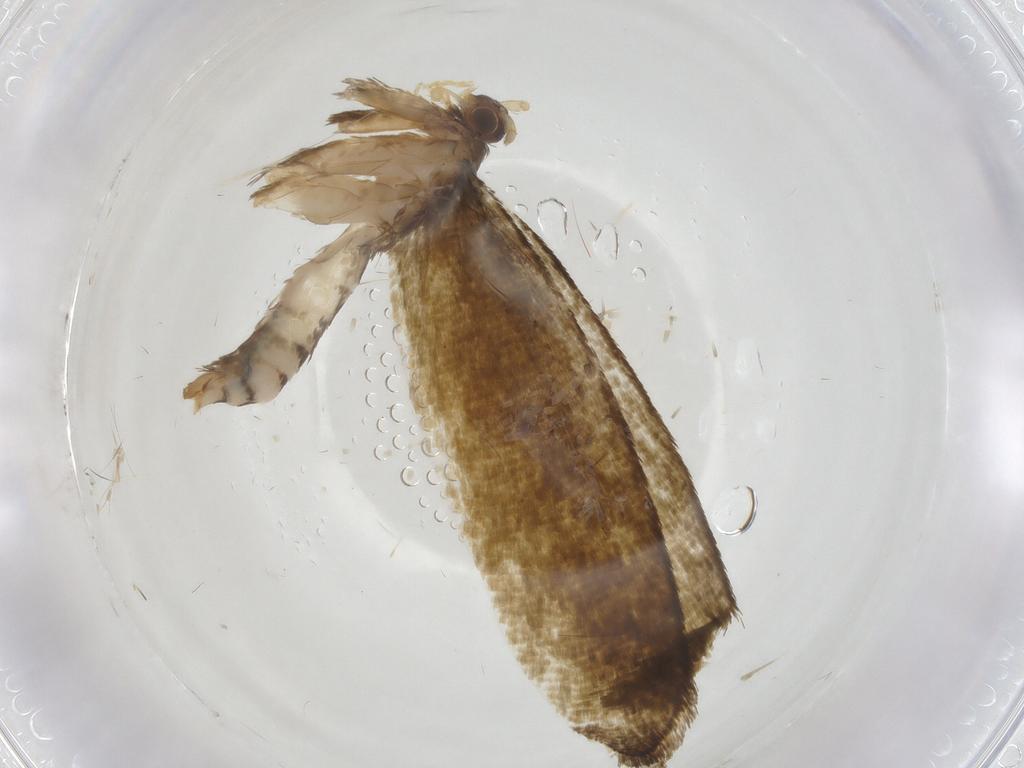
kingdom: Animalia
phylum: Arthropoda
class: Insecta
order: Lepidoptera
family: Tineidae
